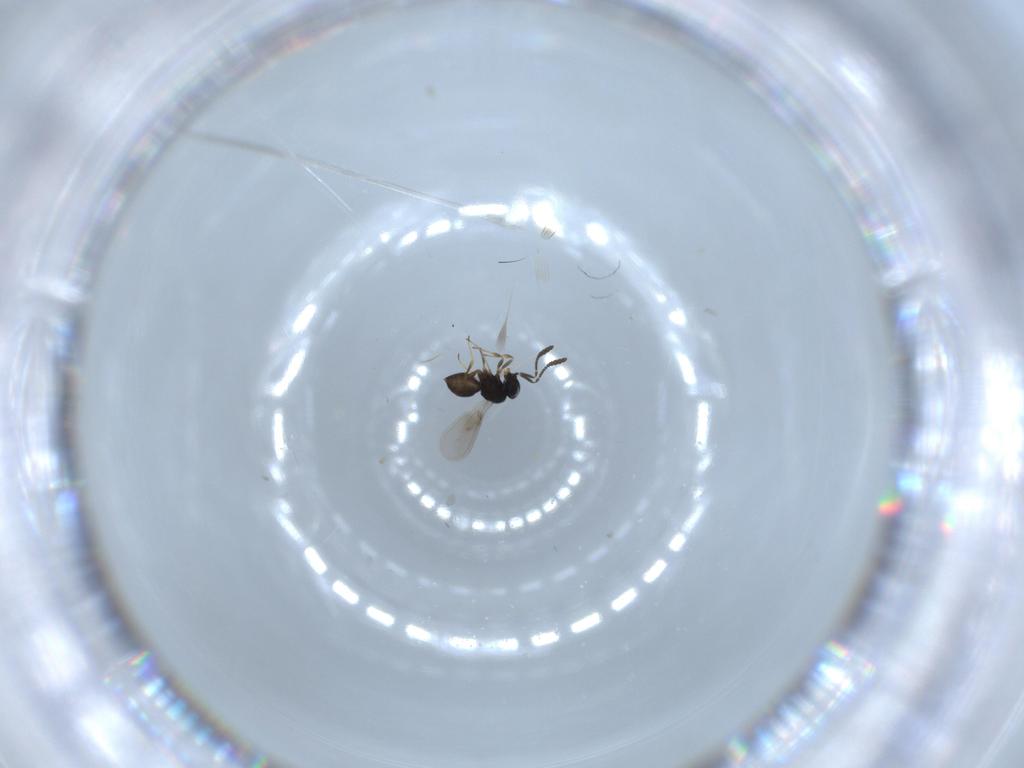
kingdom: Animalia
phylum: Arthropoda
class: Insecta
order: Hymenoptera
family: Scelionidae
